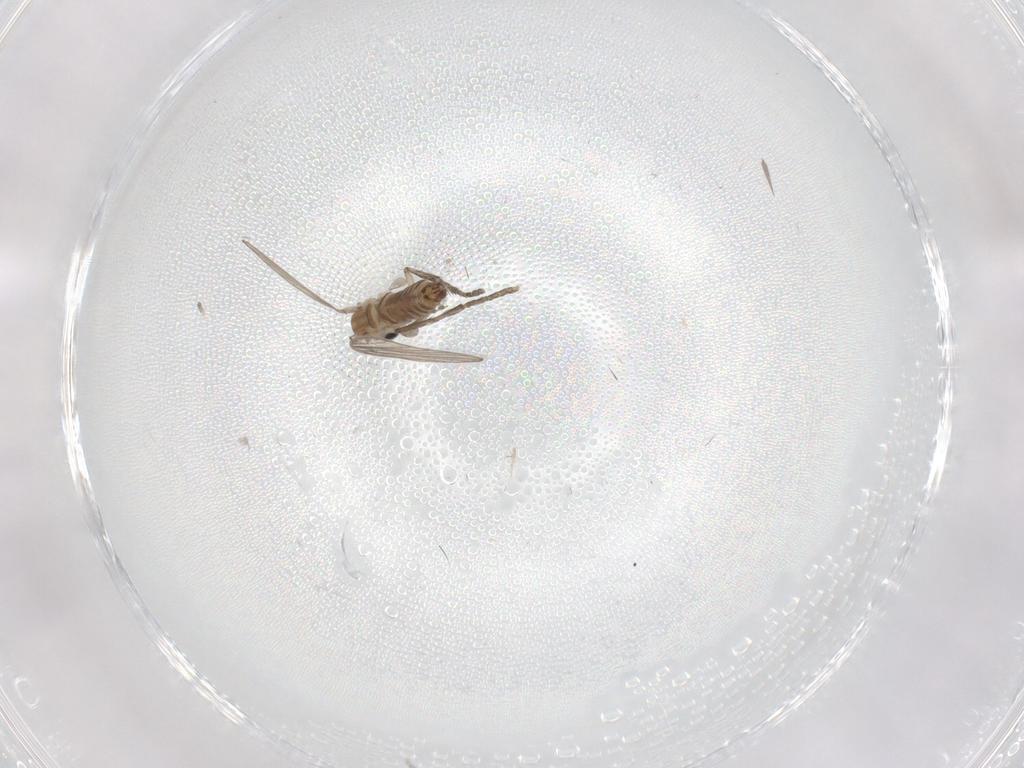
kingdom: Animalia
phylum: Arthropoda
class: Insecta
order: Diptera
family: Psychodidae
